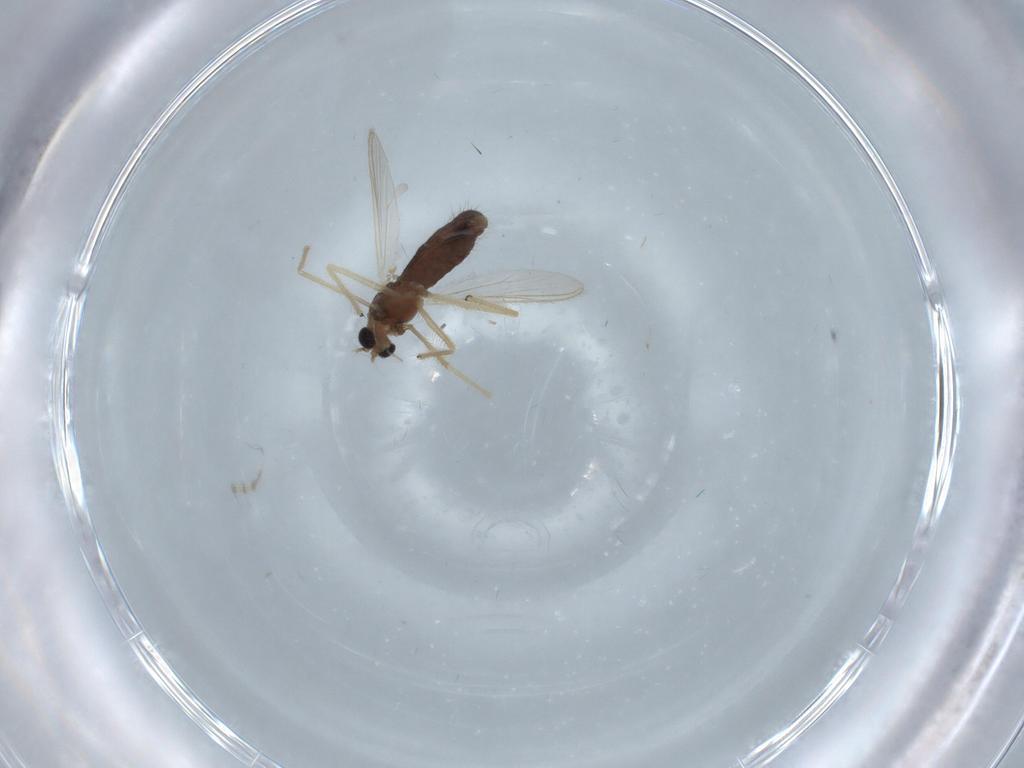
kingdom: Animalia
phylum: Arthropoda
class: Insecta
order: Diptera
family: Chironomidae
